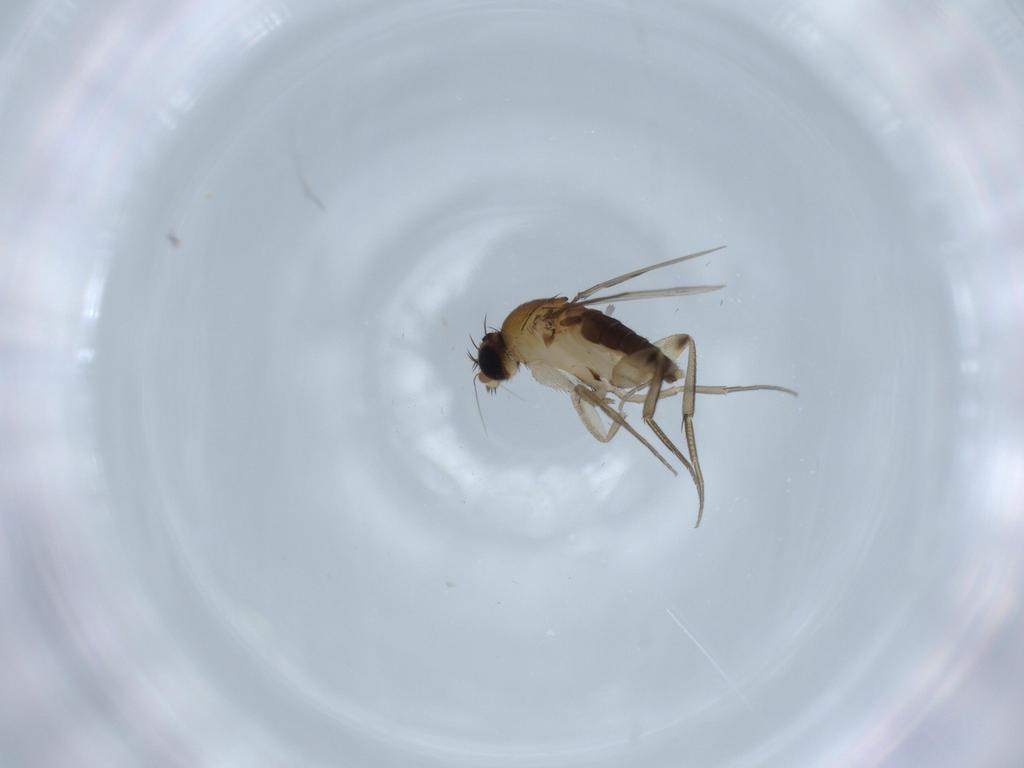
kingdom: Animalia
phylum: Arthropoda
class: Insecta
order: Diptera
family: Phoridae
